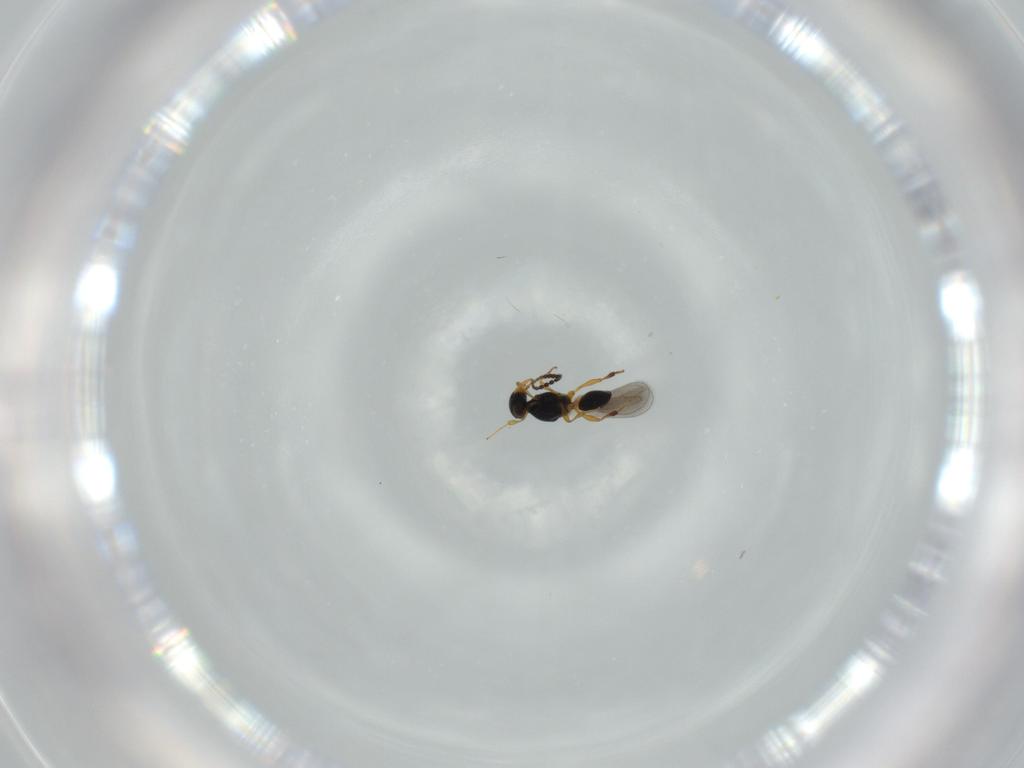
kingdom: Animalia
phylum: Arthropoda
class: Insecta
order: Hymenoptera
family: Platygastridae
